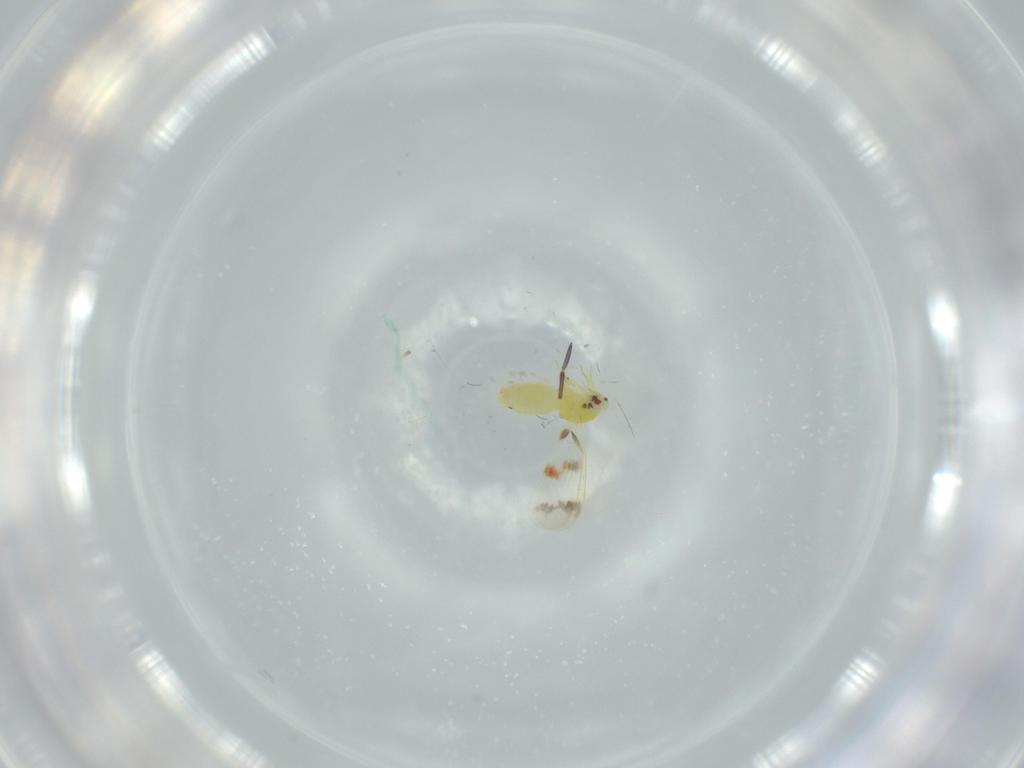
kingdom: Animalia
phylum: Arthropoda
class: Insecta
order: Hemiptera
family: Aleyrodidae
